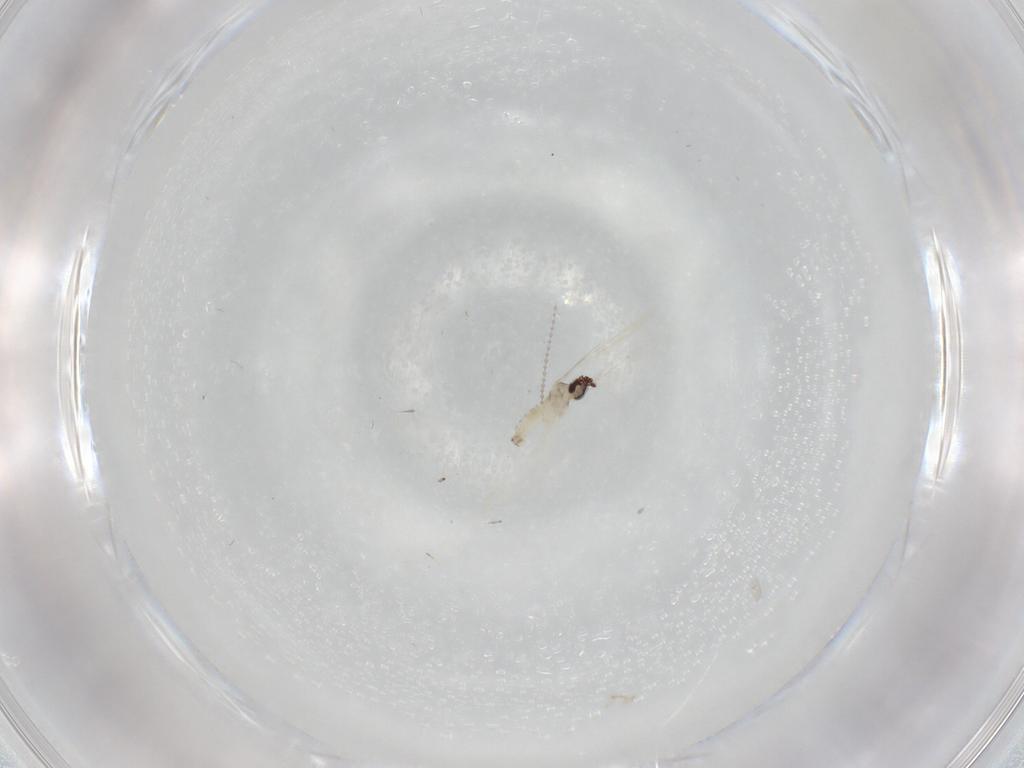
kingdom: Animalia
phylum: Arthropoda
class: Insecta
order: Diptera
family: Cecidomyiidae
